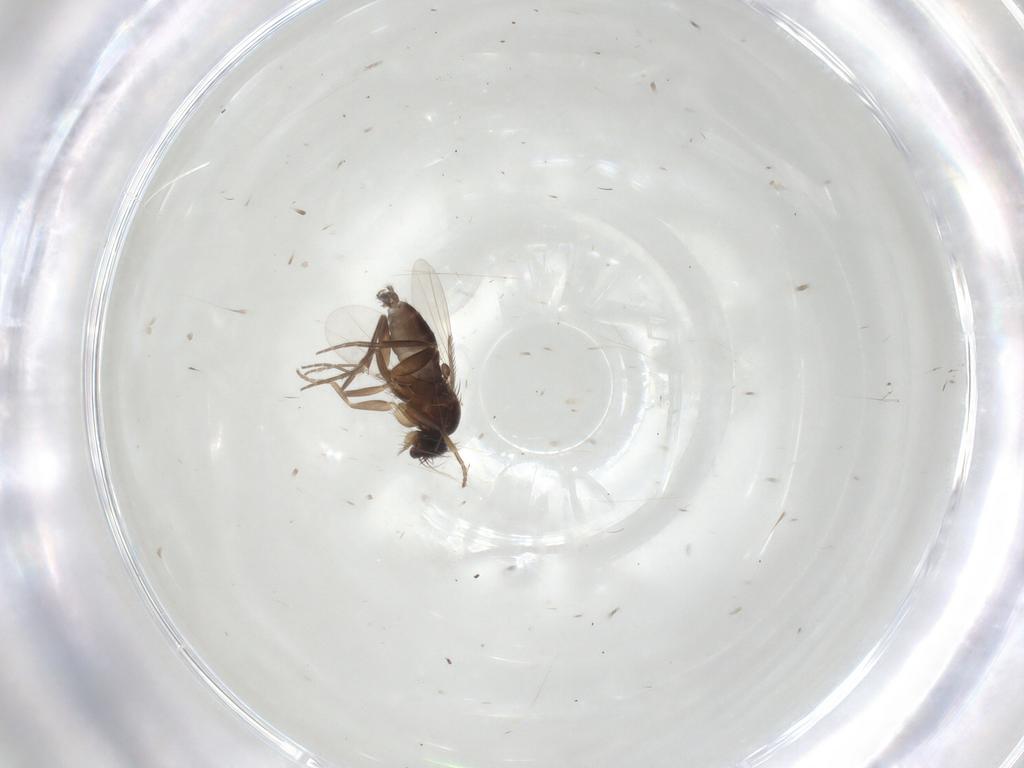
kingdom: Animalia
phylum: Arthropoda
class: Insecta
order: Diptera
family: Phoridae
